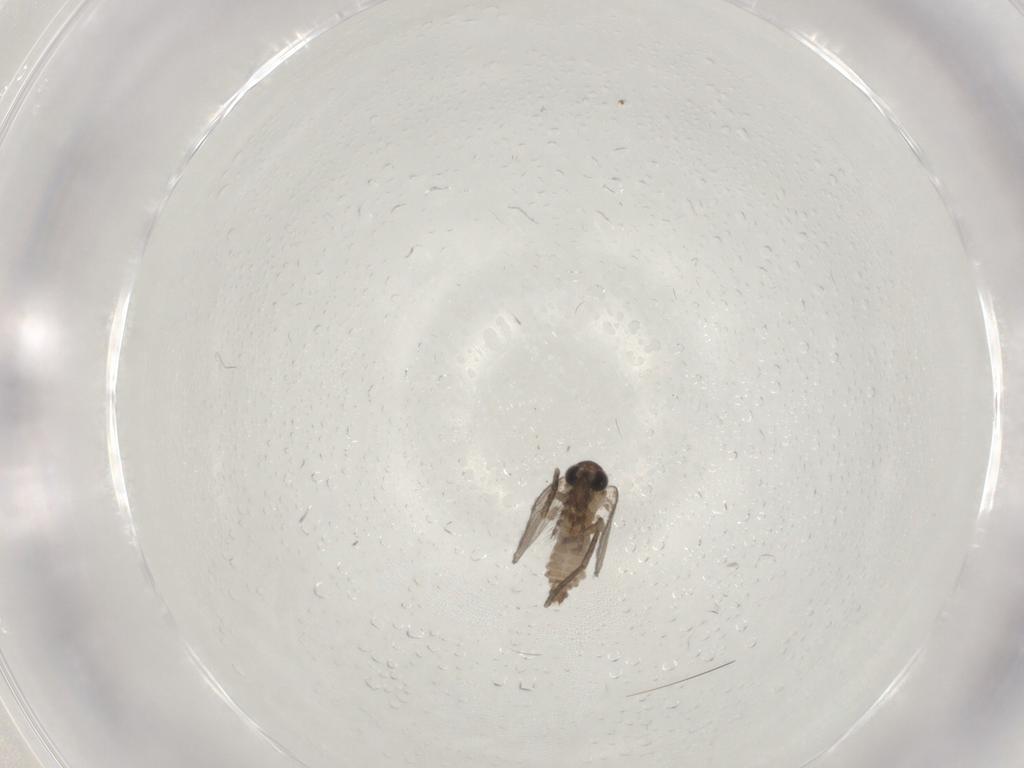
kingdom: Animalia
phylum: Arthropoda
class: Insecta
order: Diptera
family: Psychodidae
